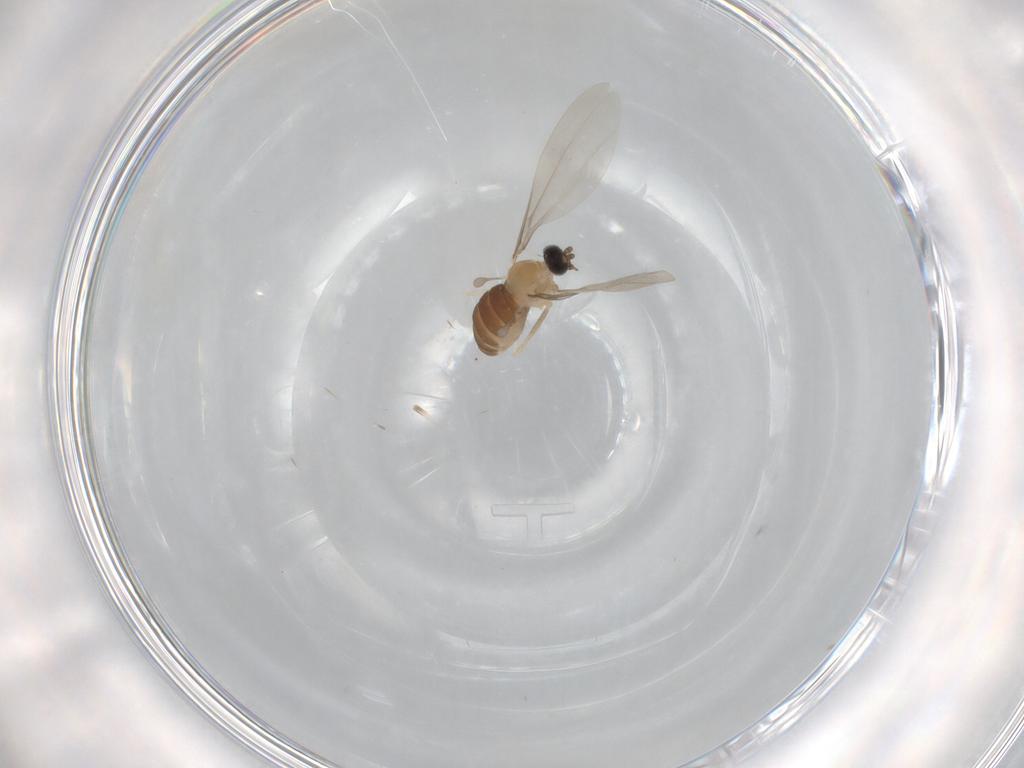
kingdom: Animalia
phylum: Arthropoda
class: Insecta
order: Diptera
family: Cecidomyiidae
